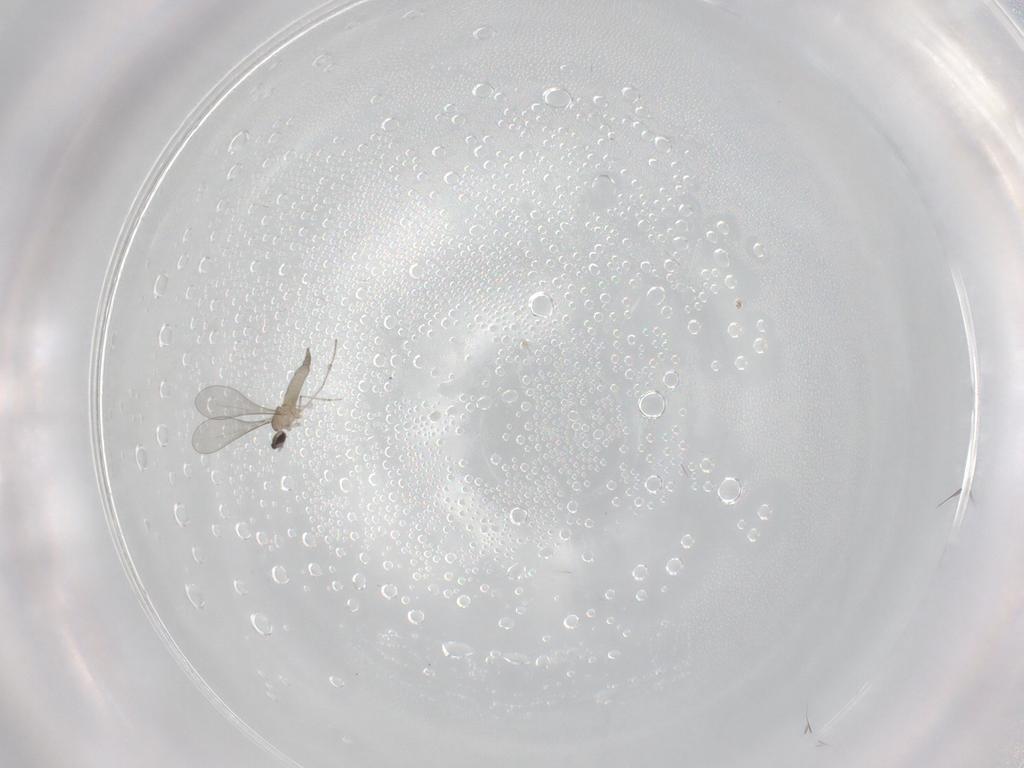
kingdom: Animalia
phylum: Arthropoda
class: Insecta
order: Diptera
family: Cecidomyiidae
